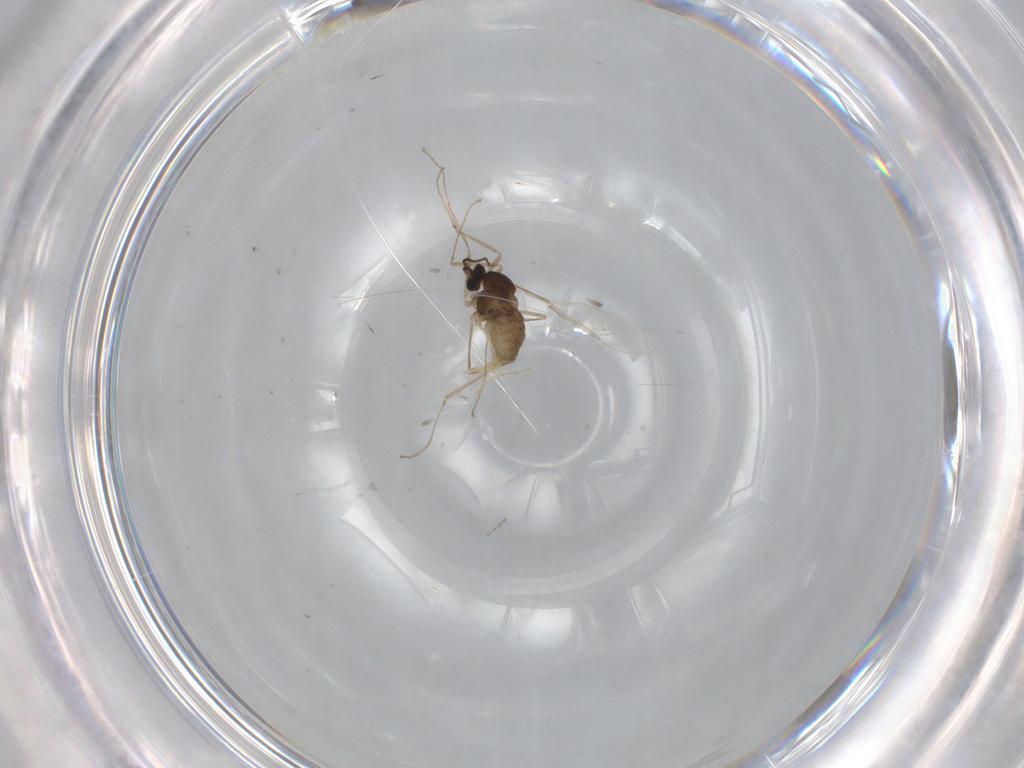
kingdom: Animalia
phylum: Arthropoda
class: Insecta
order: Diptera
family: Cecidomyiidae
